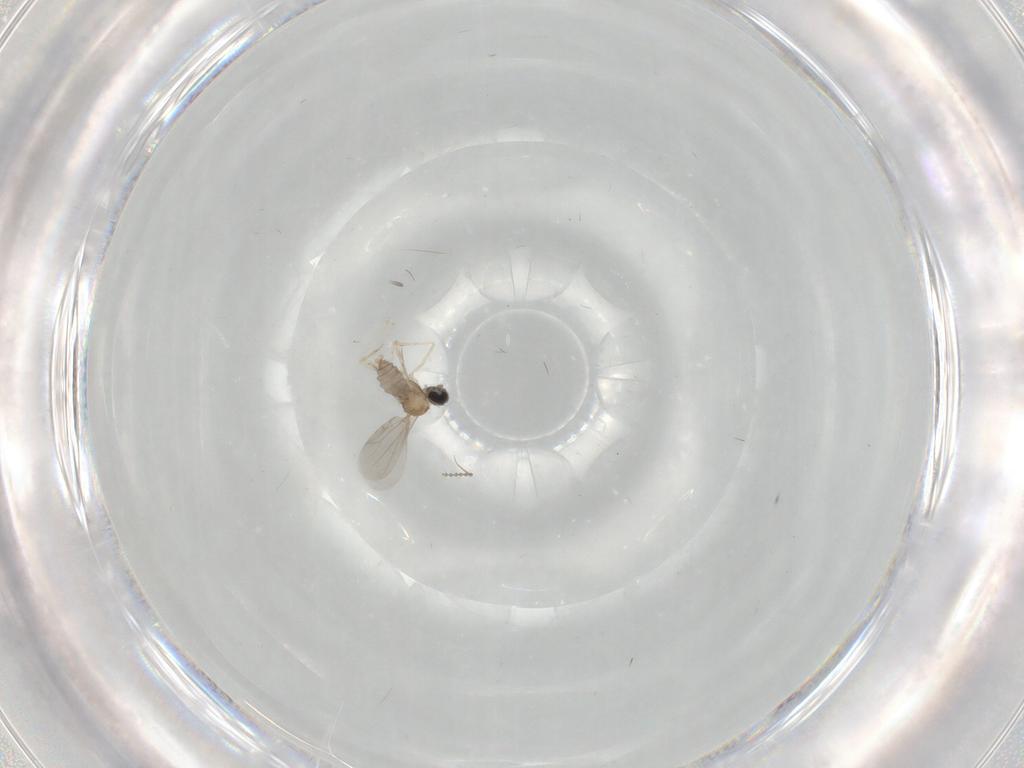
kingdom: Animalia
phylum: Arthropoda
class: Insecta
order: Diptera
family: Cecidomyiidae
